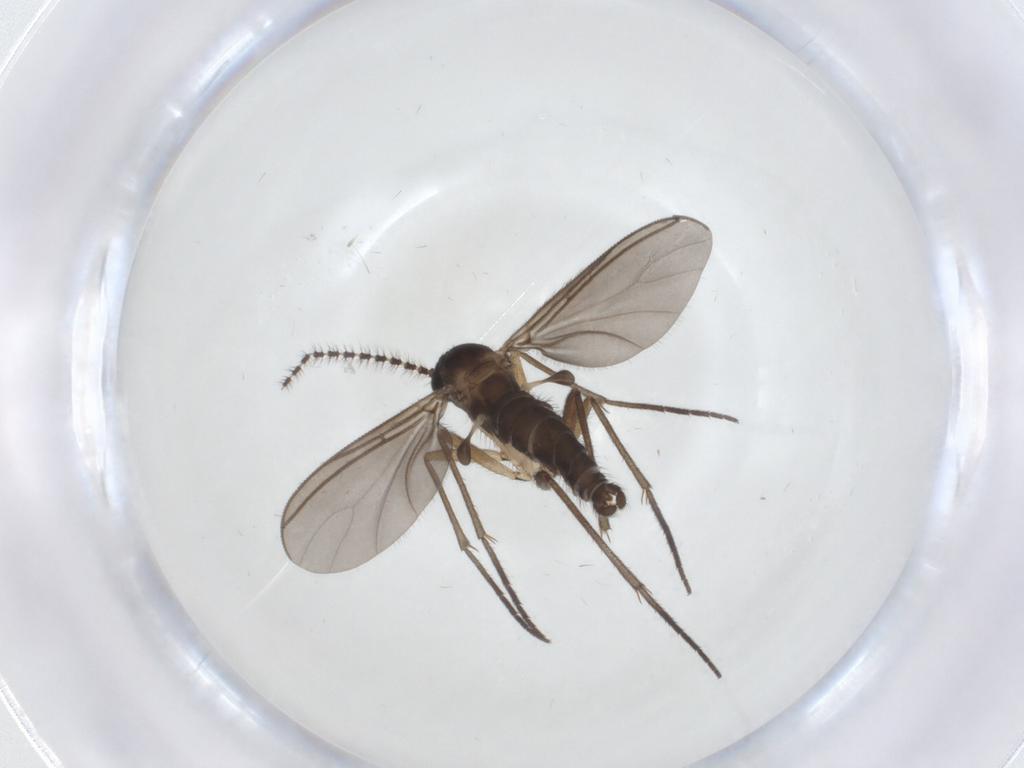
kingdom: Animalia
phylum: Arthropoda
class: Insecta
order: Diptera
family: Sciaridae
